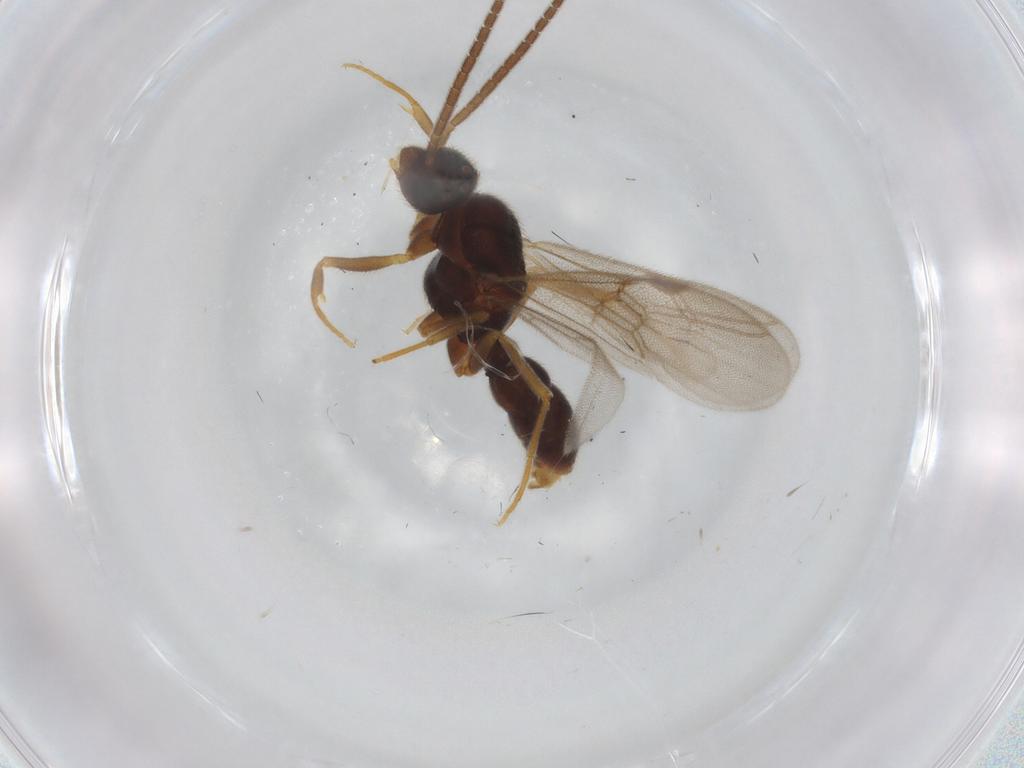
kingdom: Animalia
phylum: Arthropoda
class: Insecta
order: Hymenoptera
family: Formicidae
